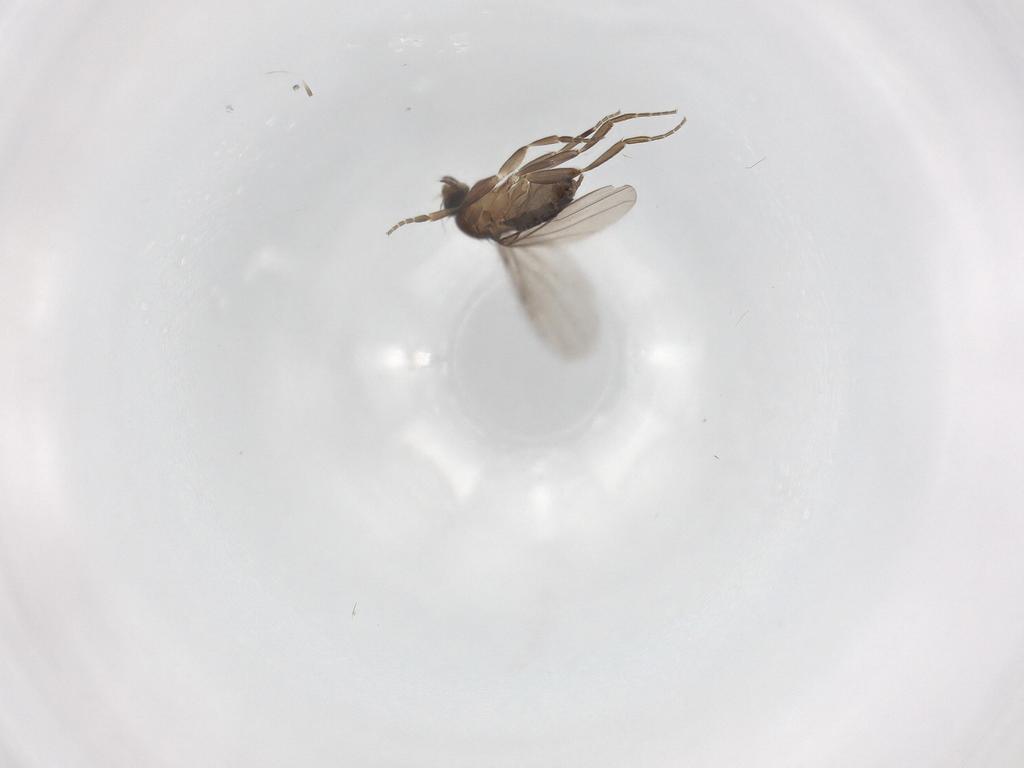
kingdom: Animalia
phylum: Arthropoda
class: Insecta
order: Diptera
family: Phoridae
